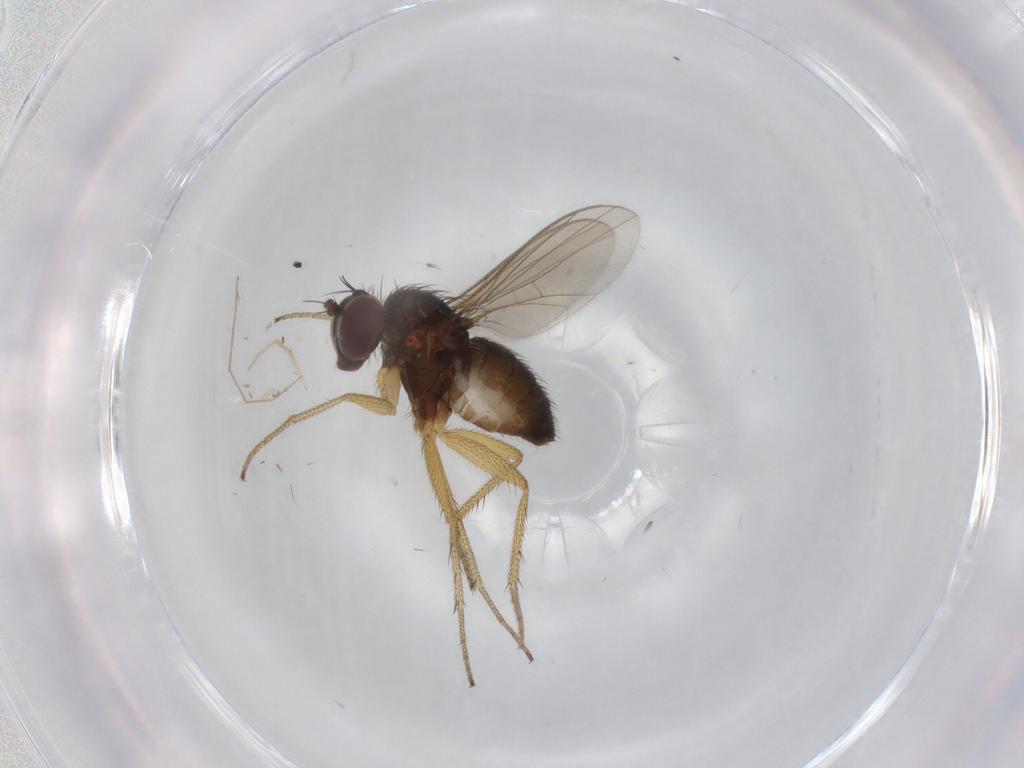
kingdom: Animalia
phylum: Arthropoda
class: Insecta
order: Diptera
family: Dolichopodidae
